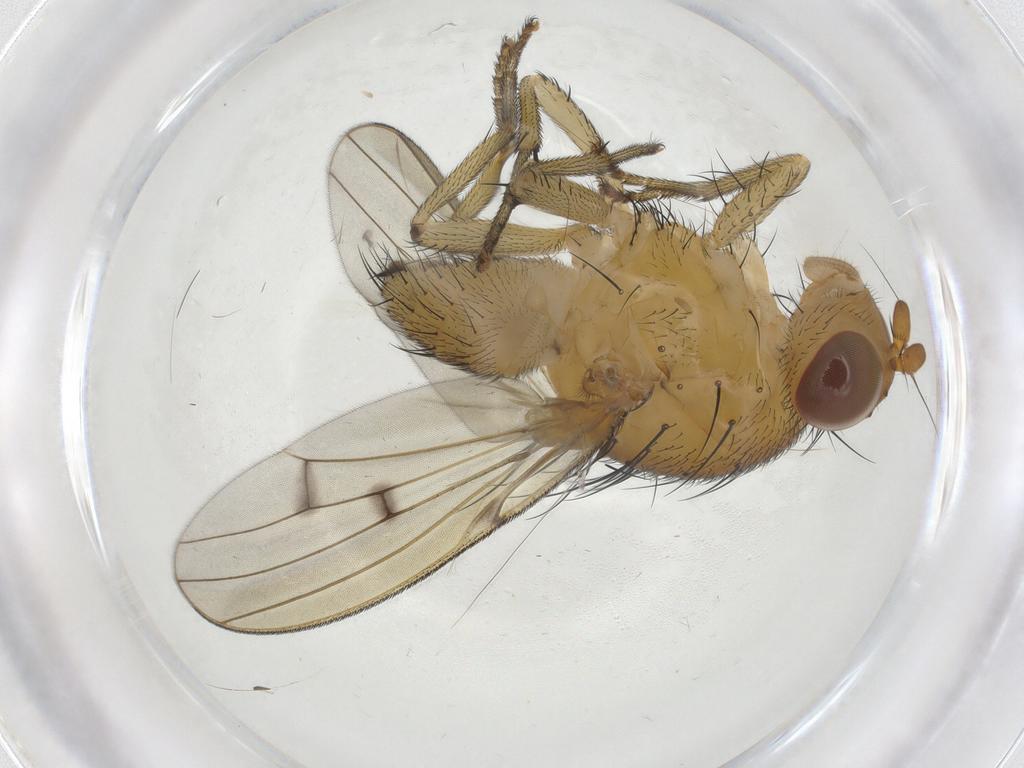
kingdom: Animalia
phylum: Arthropoda
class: Insecta
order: Diptera
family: Lauxaniidae
